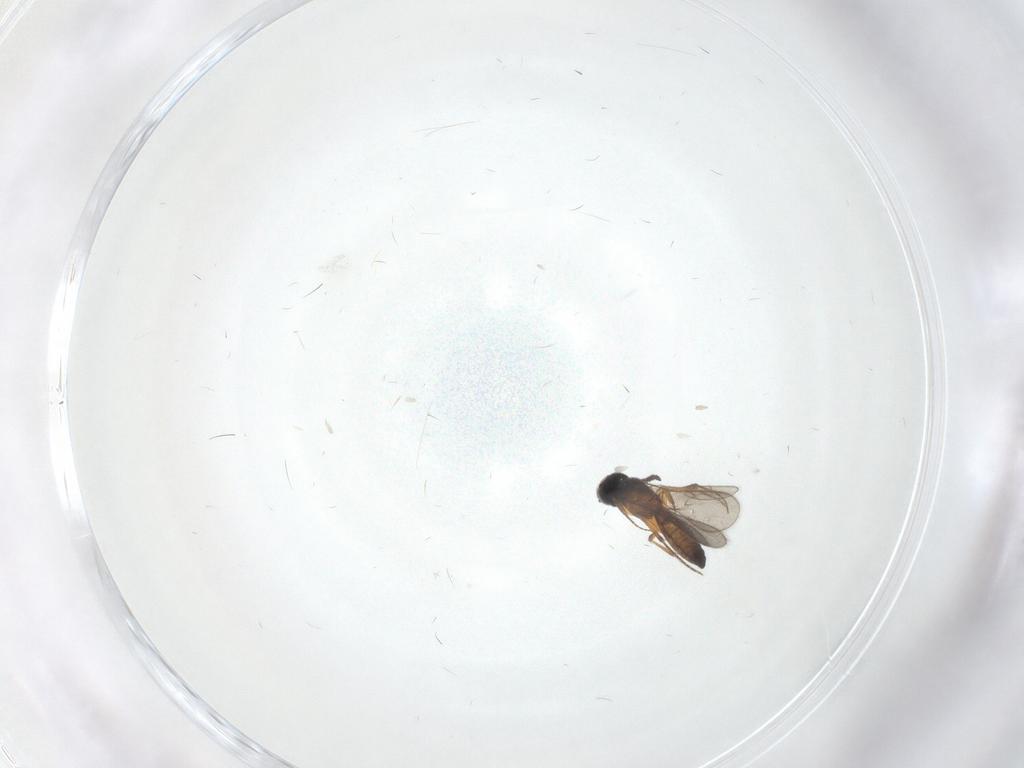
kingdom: Animalia
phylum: Arthropoda
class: Insecta
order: Hymenoptera
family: Scelionidae
